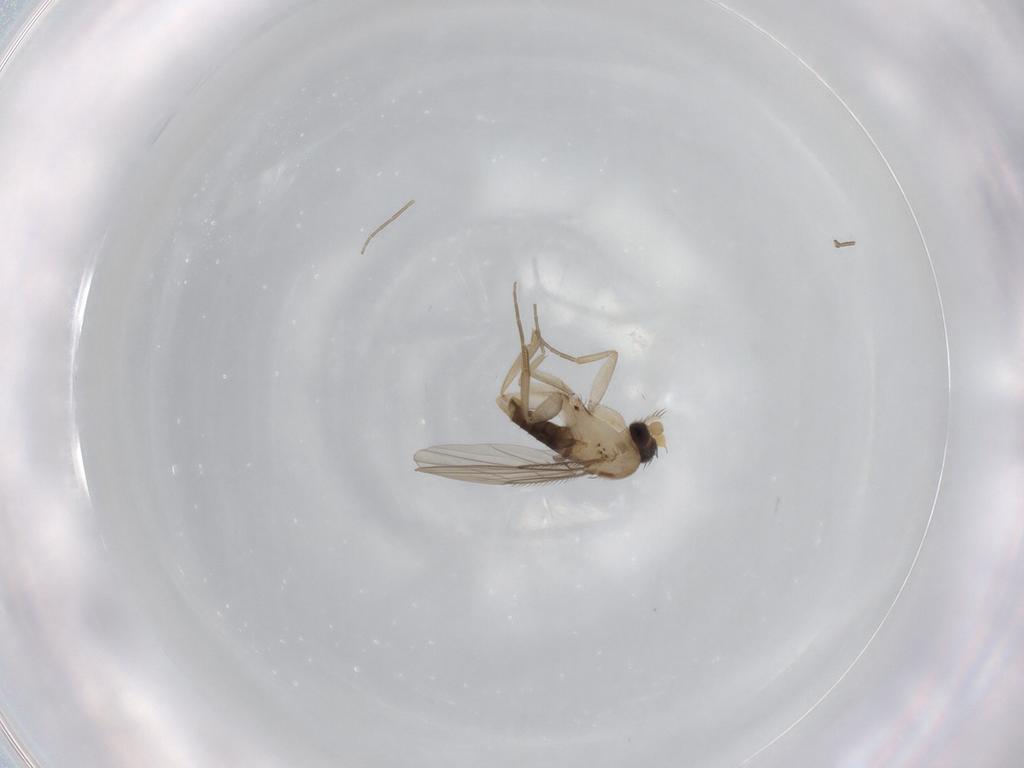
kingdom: Animalia
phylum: Arthropoda
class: Insecta
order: Diptera
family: Phoridae
